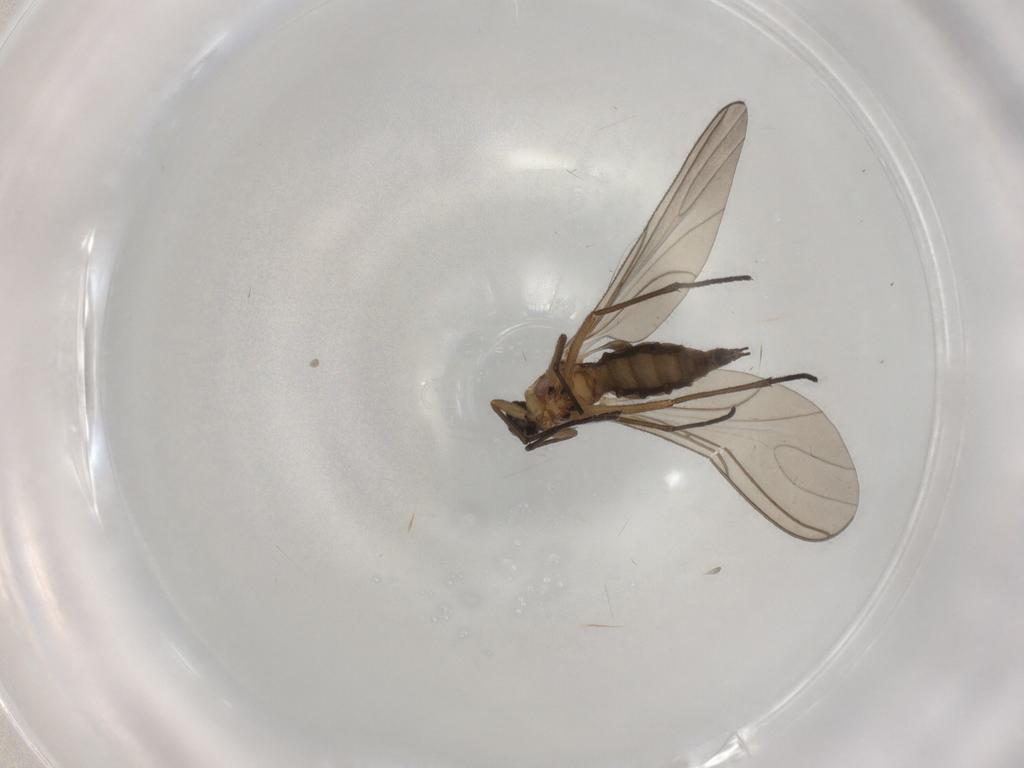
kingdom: Animalia
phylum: Arthropoda
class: Insecta
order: Diptera
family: Sciaridae
